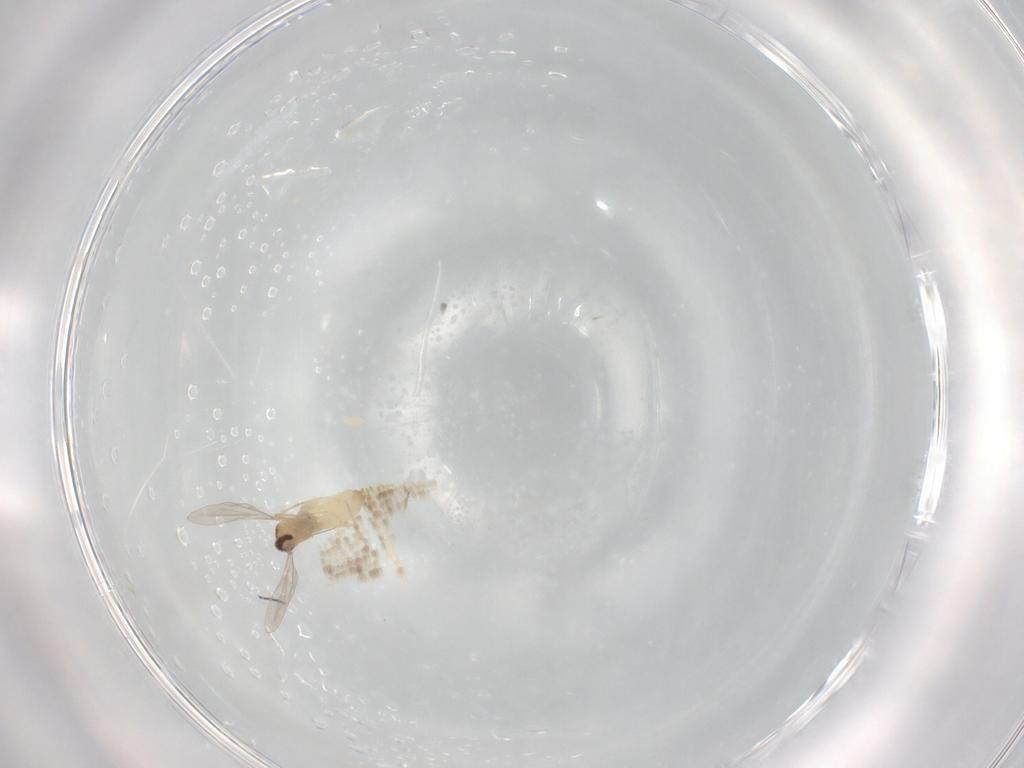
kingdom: Animalia
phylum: Arthropoda
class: Insecta
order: Diptera
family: Cecidomyiidae
